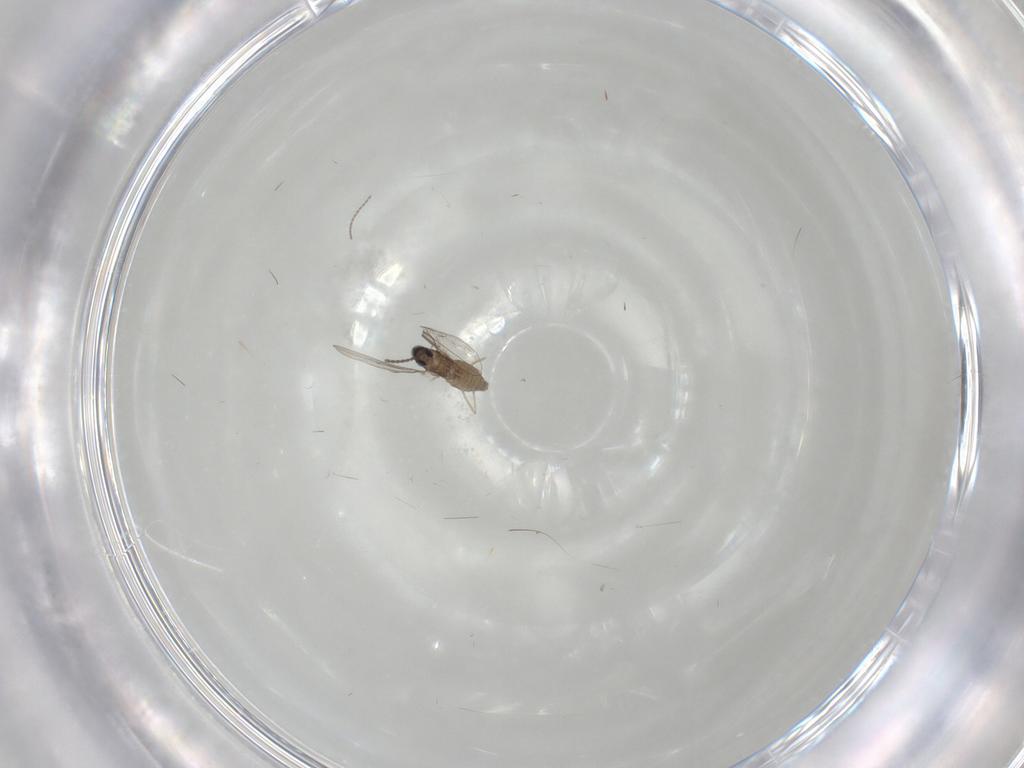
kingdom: Animalia
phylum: Arthropoda
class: Insecta
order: Diptera
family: Cecidomyiidae
